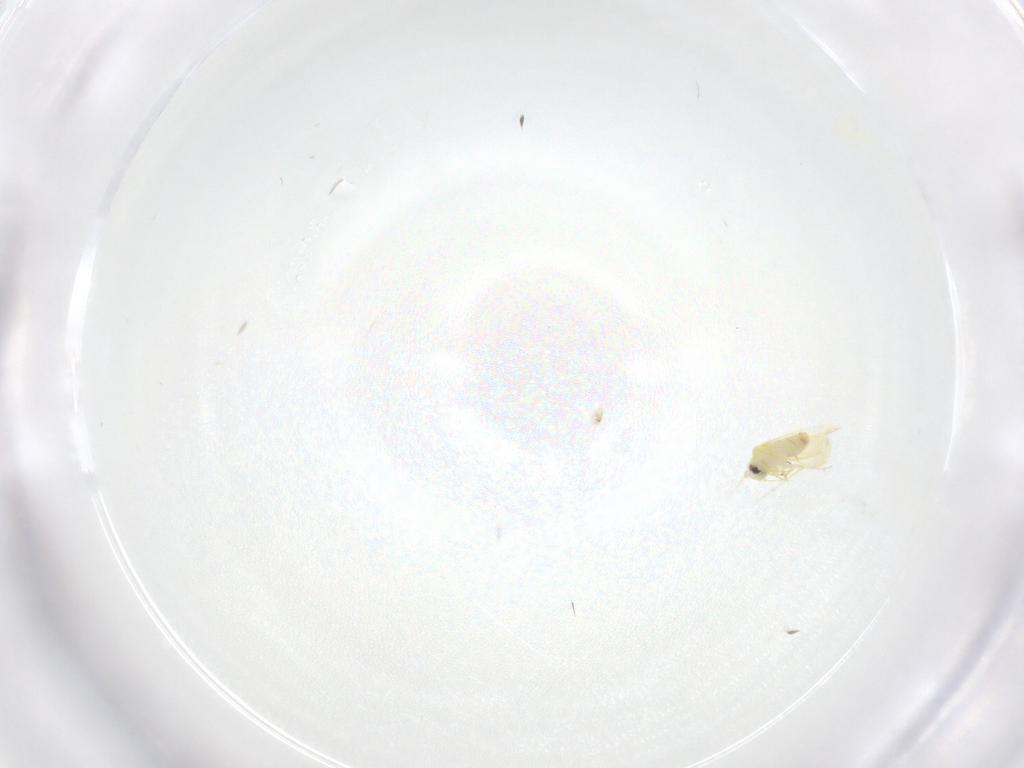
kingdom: Animalia
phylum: Arthropoda
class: Insecta
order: Hemiptera
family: Aleyrodidae
